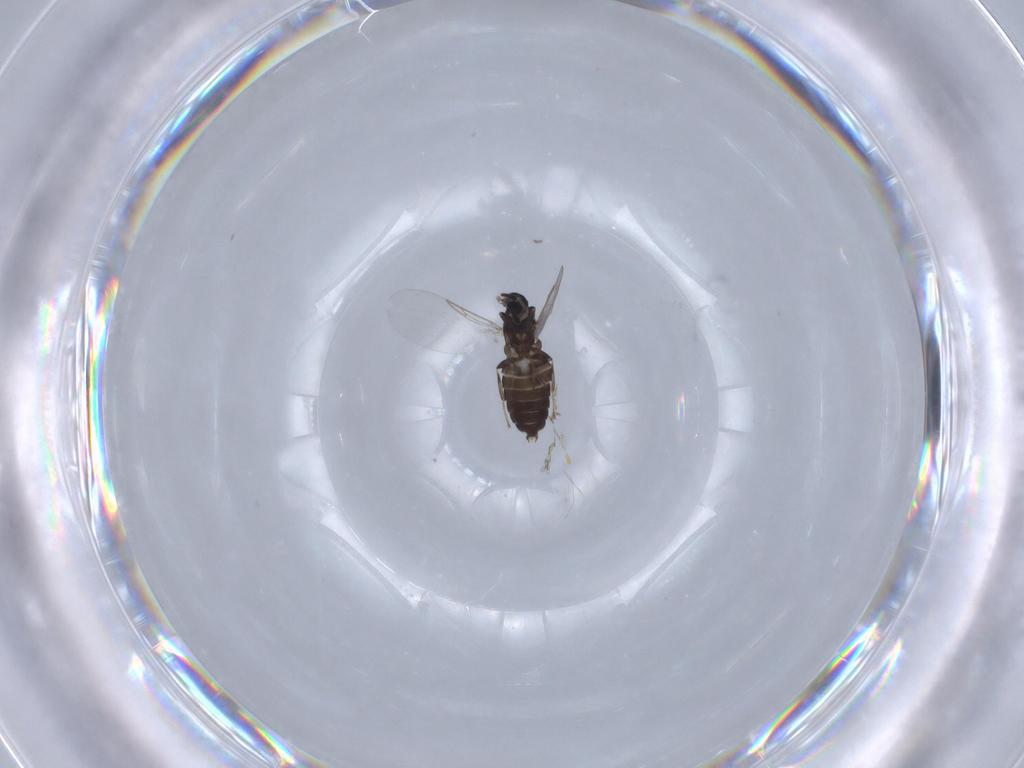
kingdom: Animalia
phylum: Arthropoda
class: Insecta
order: Diptera
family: Scatopsidae
